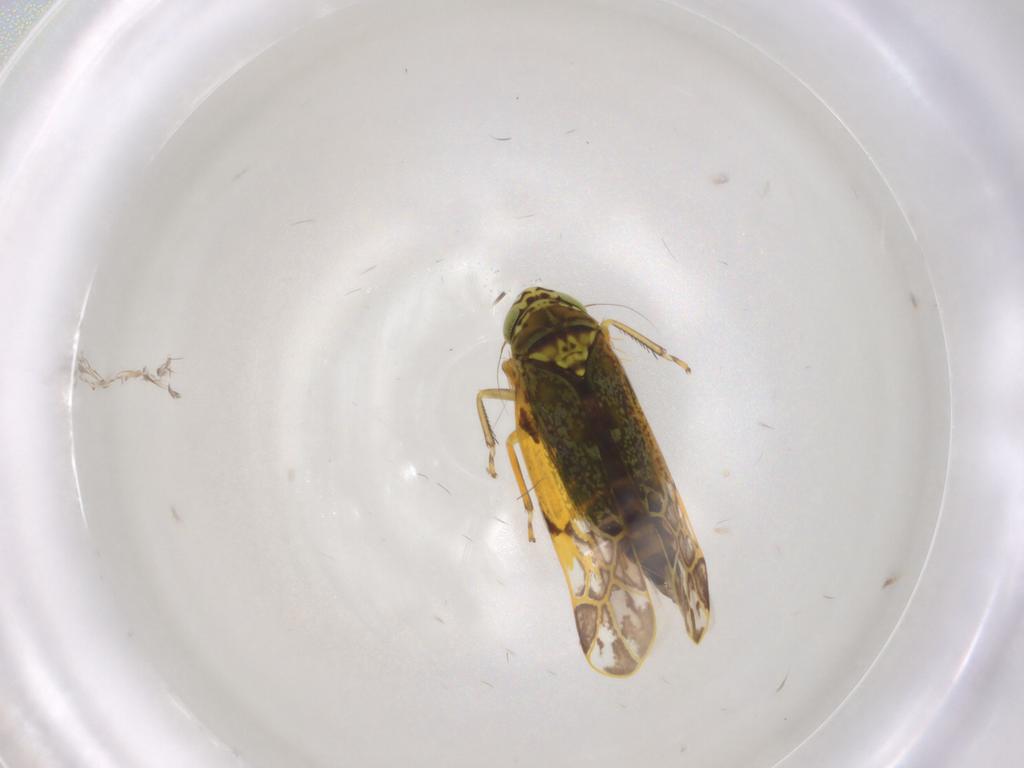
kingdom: Animalia
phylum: Arthropoda
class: Insecta
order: Hemiptera
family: Cicadellidae
